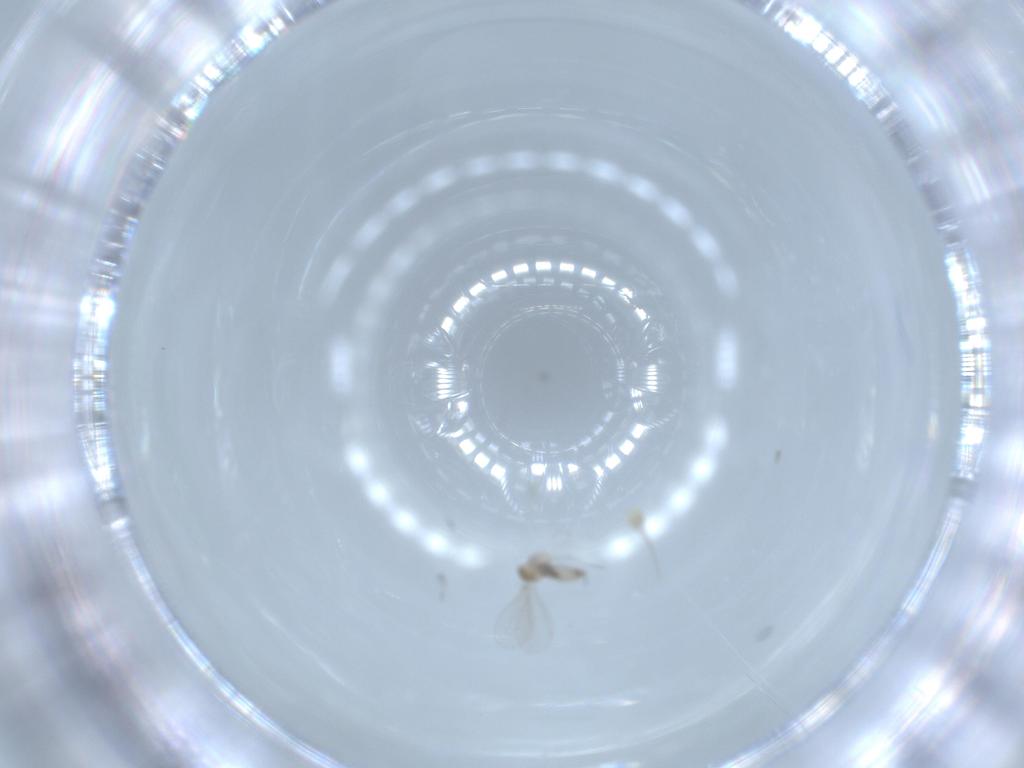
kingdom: Animalia
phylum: Arthropoda
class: Insecta
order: Diptera
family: Cecidomyiidae
